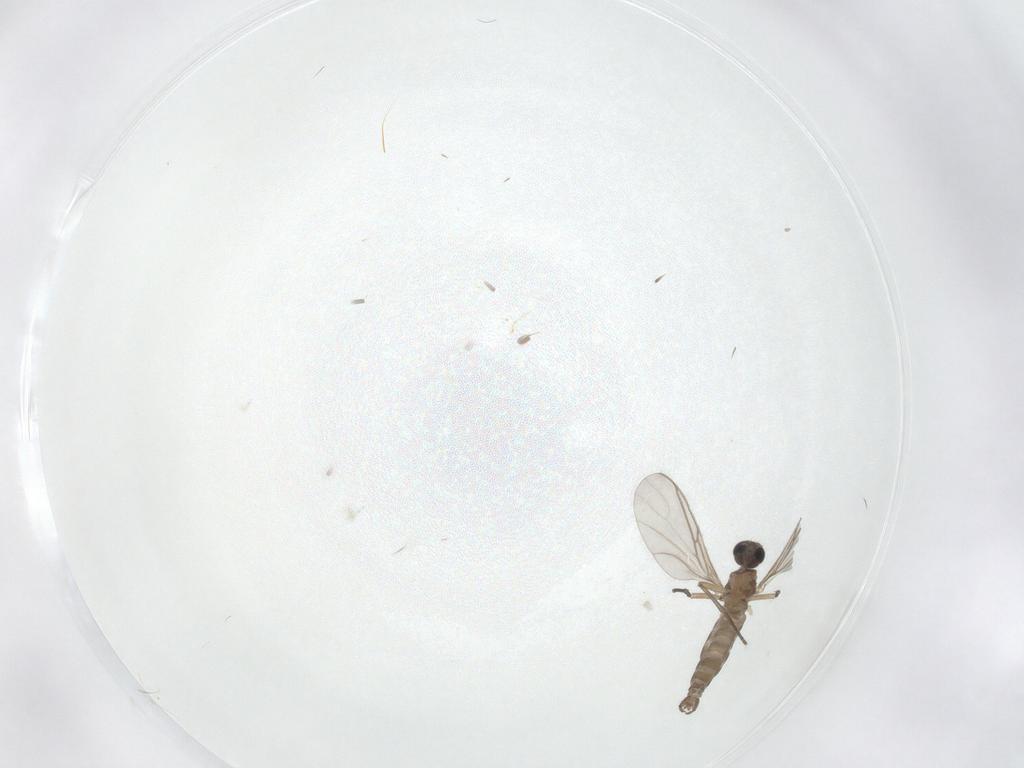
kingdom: Animalia
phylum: Arthropoda
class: Insecta
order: Diptera
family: Sciaridae
